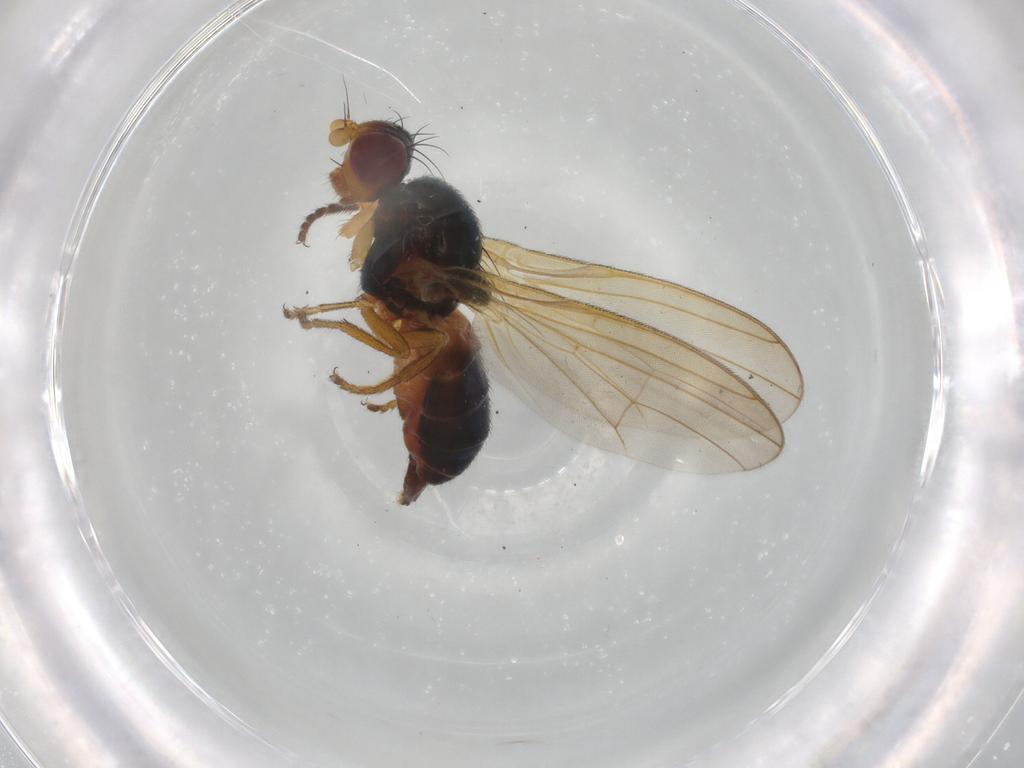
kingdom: Animalia
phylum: Arthropoda
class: Insecta
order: Diptera
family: Piophilidae
